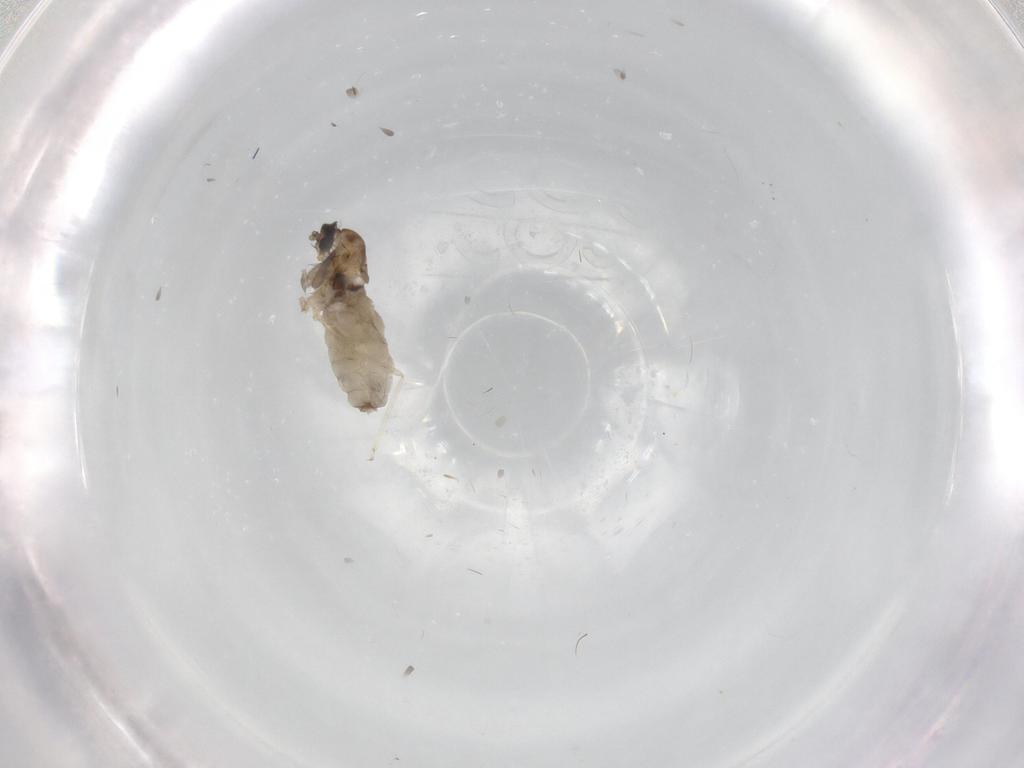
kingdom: Animalia
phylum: Arthropoda
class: Insecta
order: Diptera
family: Cecidomyiidae
